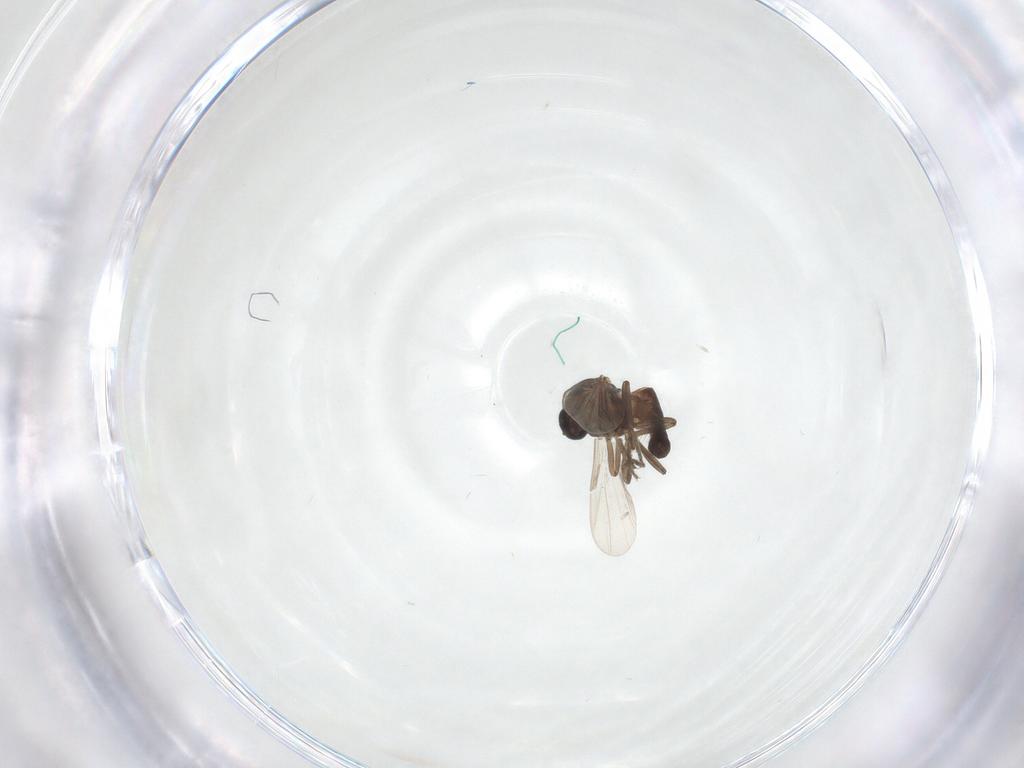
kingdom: Animalia
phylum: Arthropoda
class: Insecta
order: Diptera
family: Ceratopogonidae
